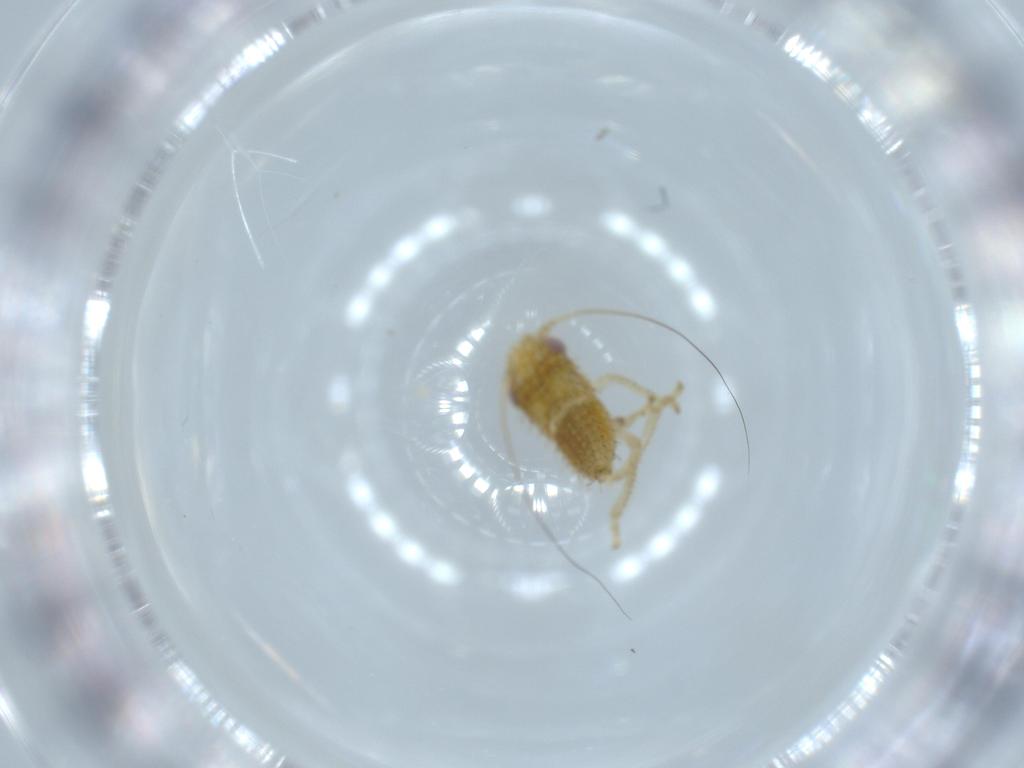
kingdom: Animalia
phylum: Arthropoda
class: Insecta
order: Hemiptera
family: Cicadellidae
